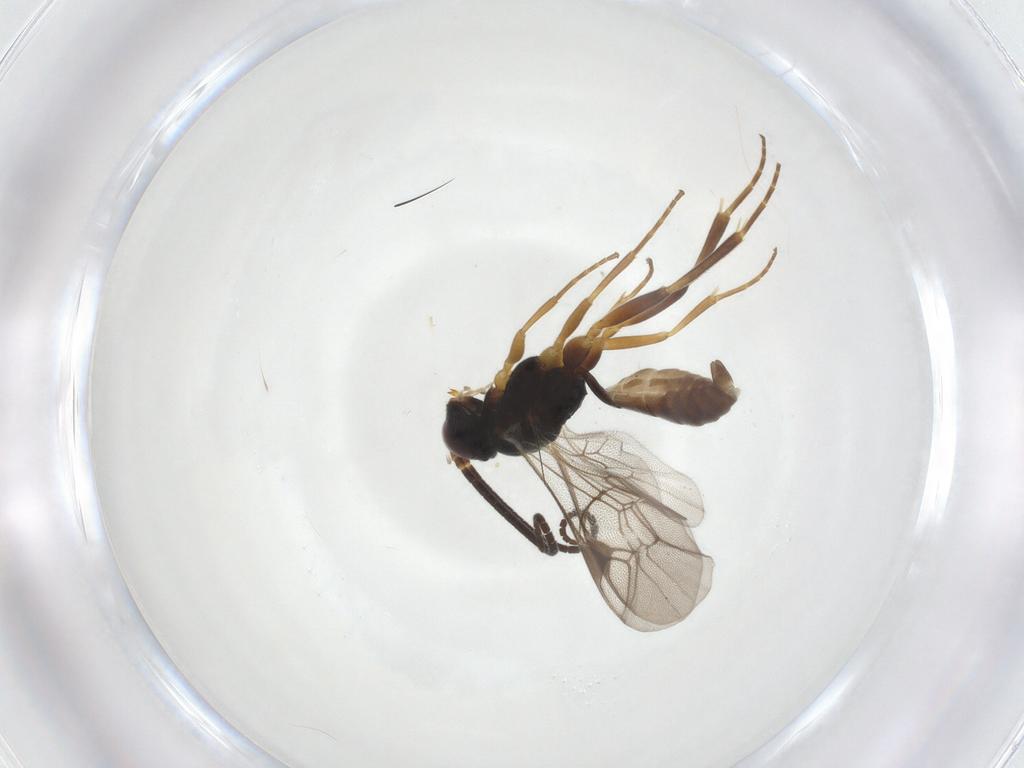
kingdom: Animalia
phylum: Arthropoda
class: Insecta
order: Hymenoptera
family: Ichneumonidae
